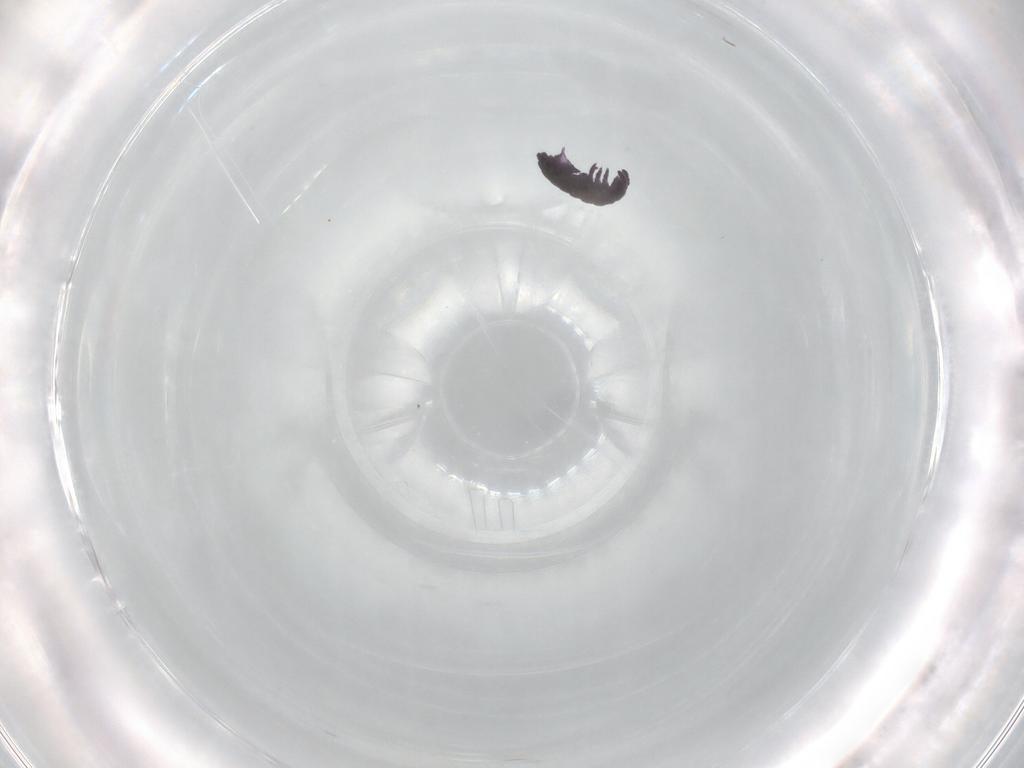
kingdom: Animalia
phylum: Arthropoda
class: Collembola
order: Poduromorpha
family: Hypogastruridae
